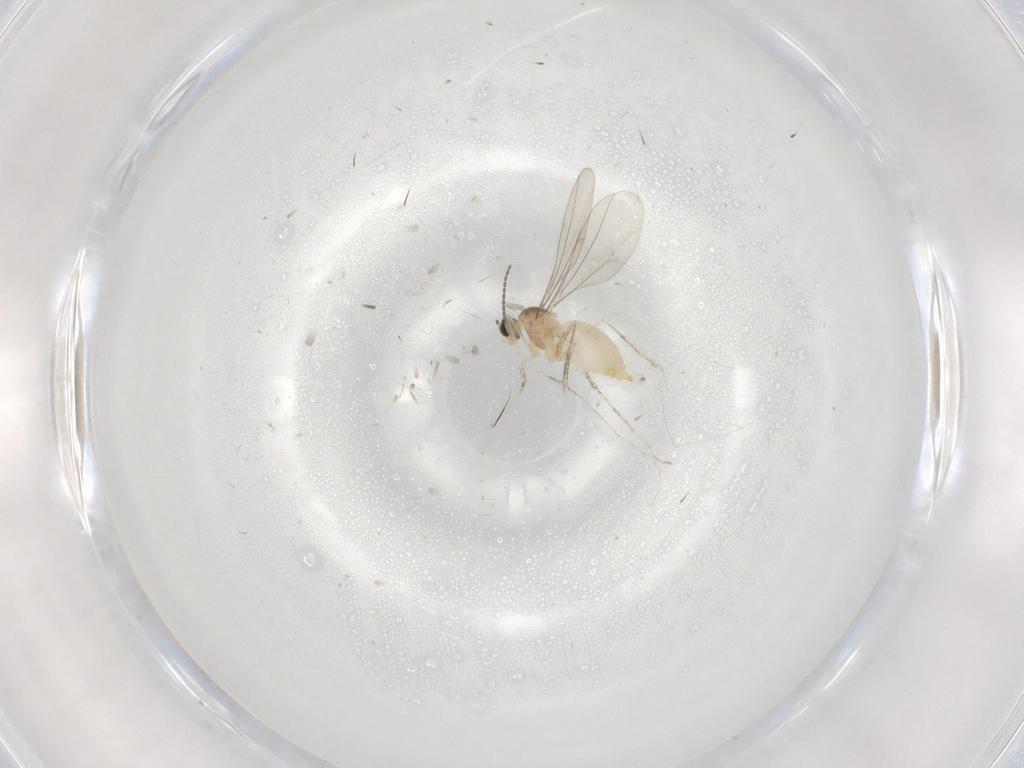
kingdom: Animalia
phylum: Arthropoda
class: Insecta
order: Diptera
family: Cecidomyiidae
